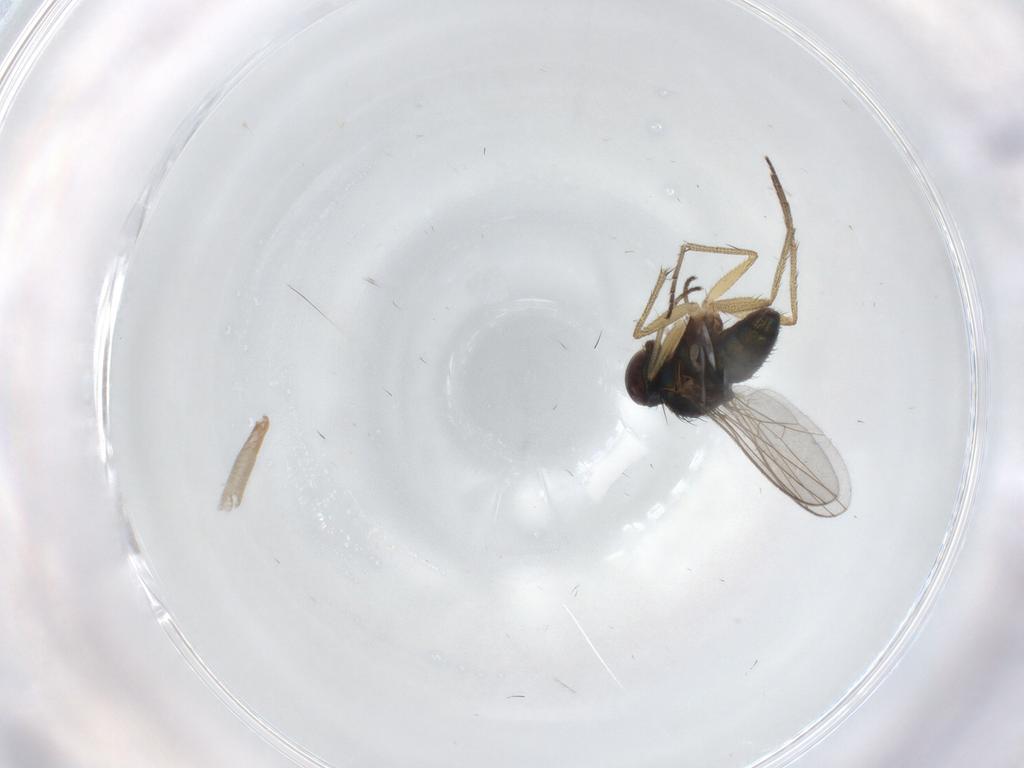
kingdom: Animalia
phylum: Arthropoda
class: Insecta
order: Diptera
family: Dolichopodidae
